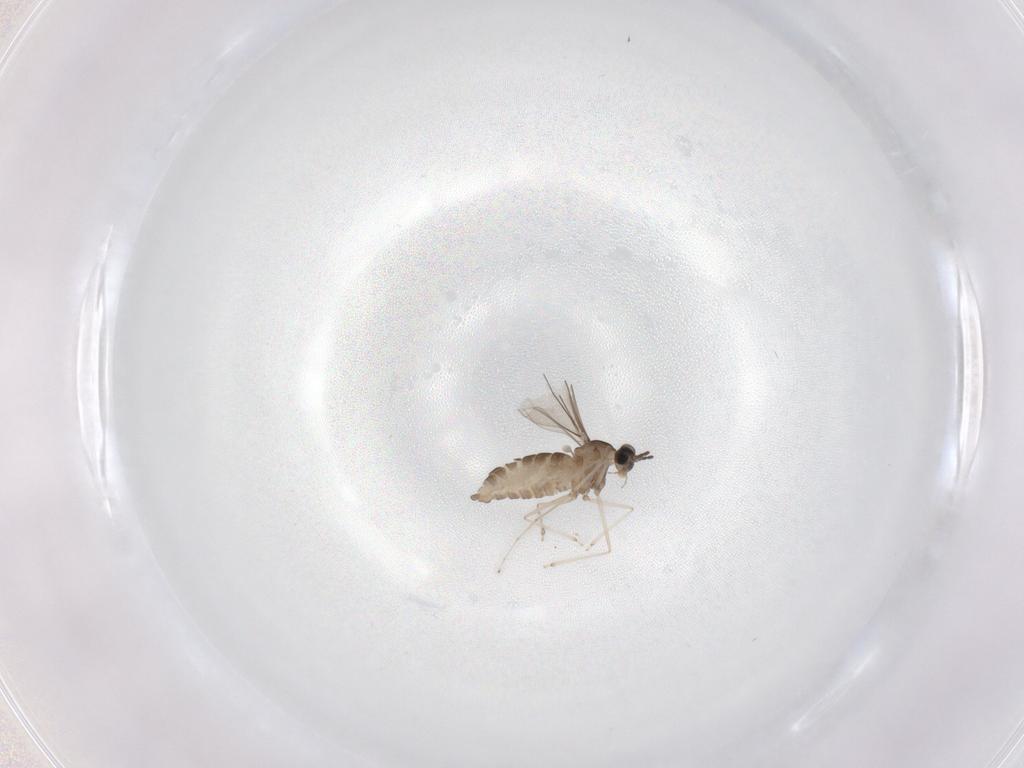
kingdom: Animalia
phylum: Arthropoda
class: Insecta
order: Diptera
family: Cecidomyiidae
